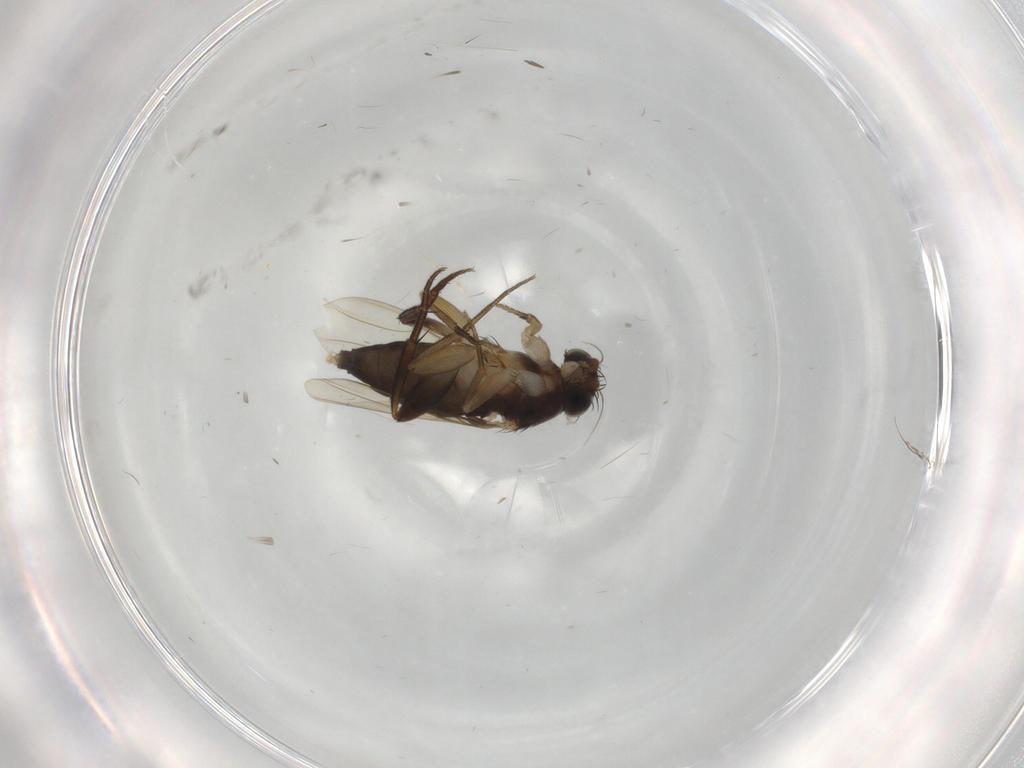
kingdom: Animalia
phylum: Arthropoda
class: Insecta
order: Diptera
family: Phoridae
